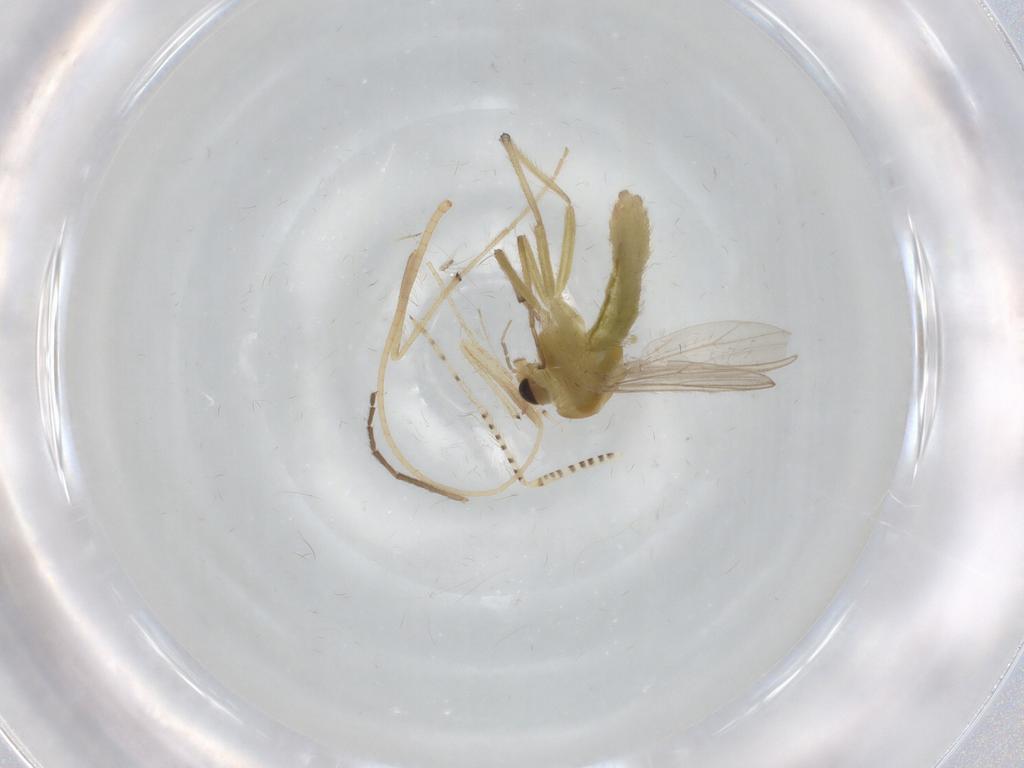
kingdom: Animalia
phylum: Arthropoda
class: Insecta
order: Diptera
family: Chironomidae
